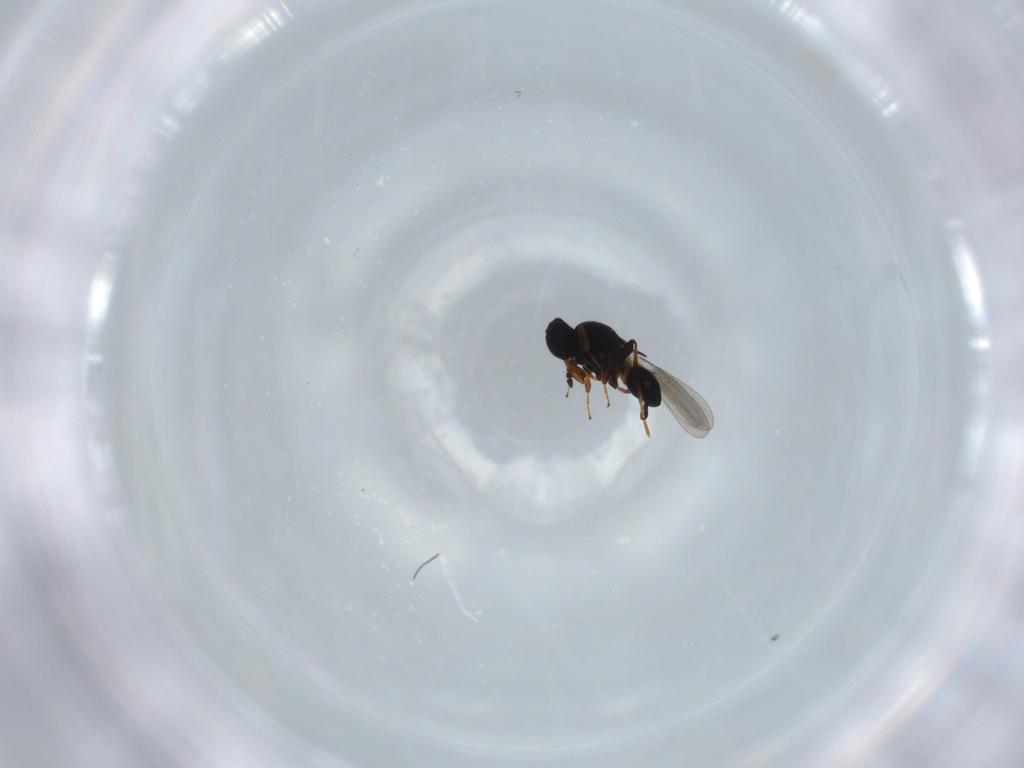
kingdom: Animalia
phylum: Arthropoda
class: Insecta
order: Hymenoptera
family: Platygastridae
